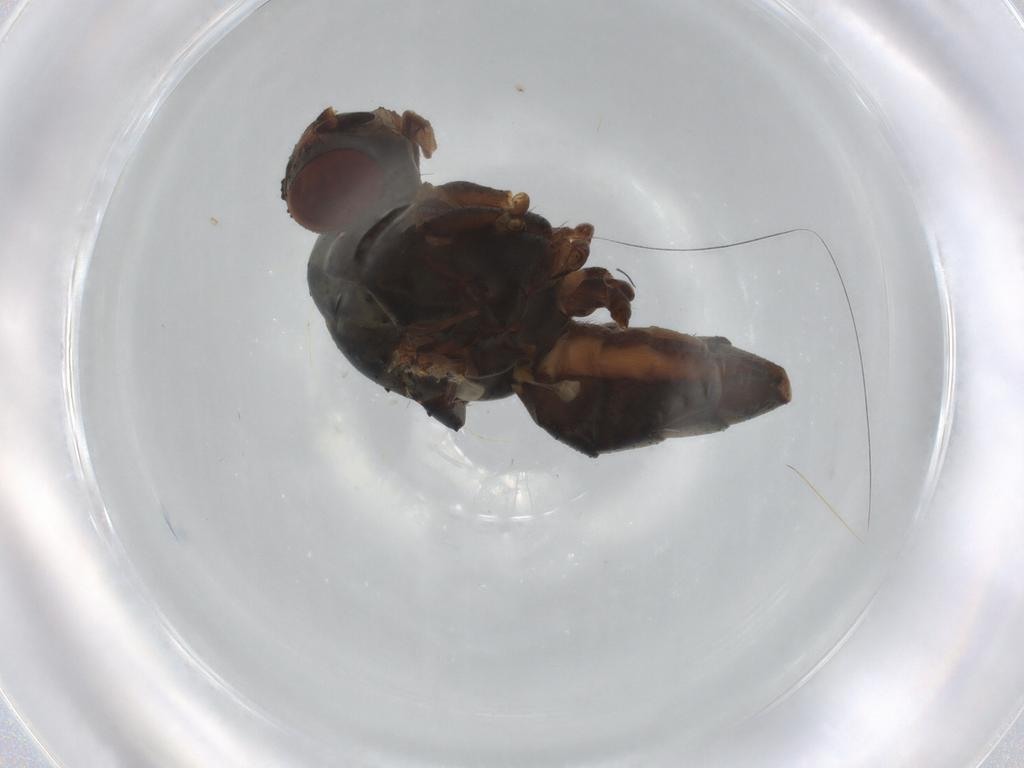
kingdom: Animalia
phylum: Arthropoda
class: Insecta
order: Diptera
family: Anthomyiidae
